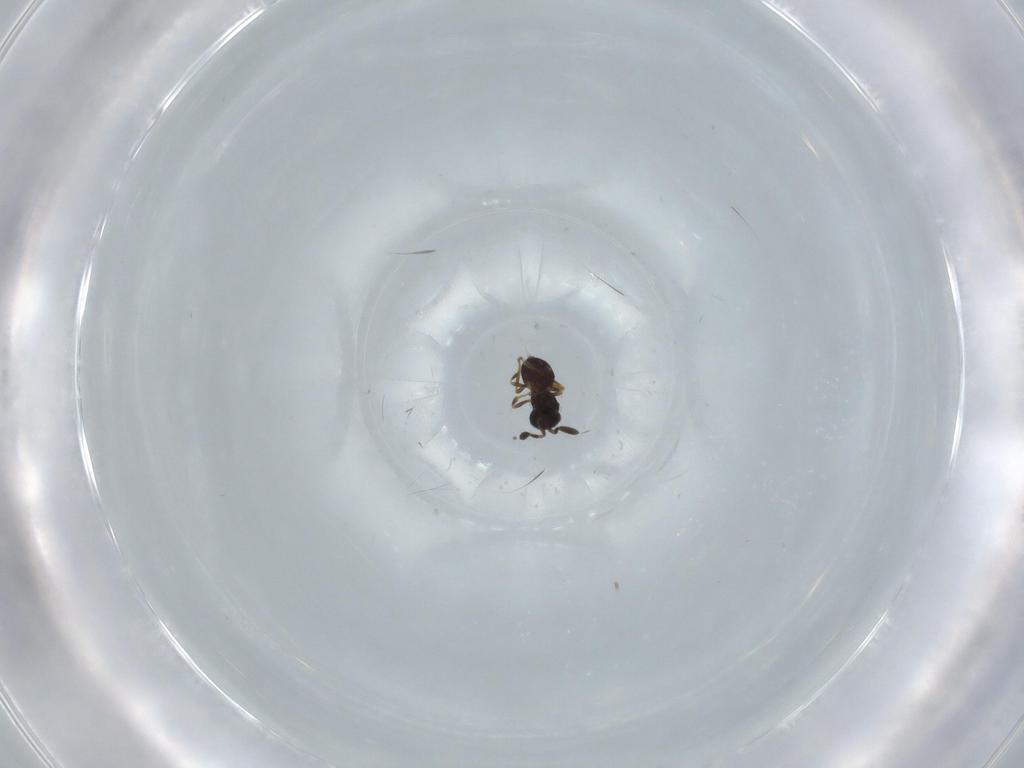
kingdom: Animalia
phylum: Arthropoda
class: Insecta
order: Hymenoptera
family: Scelionidae
